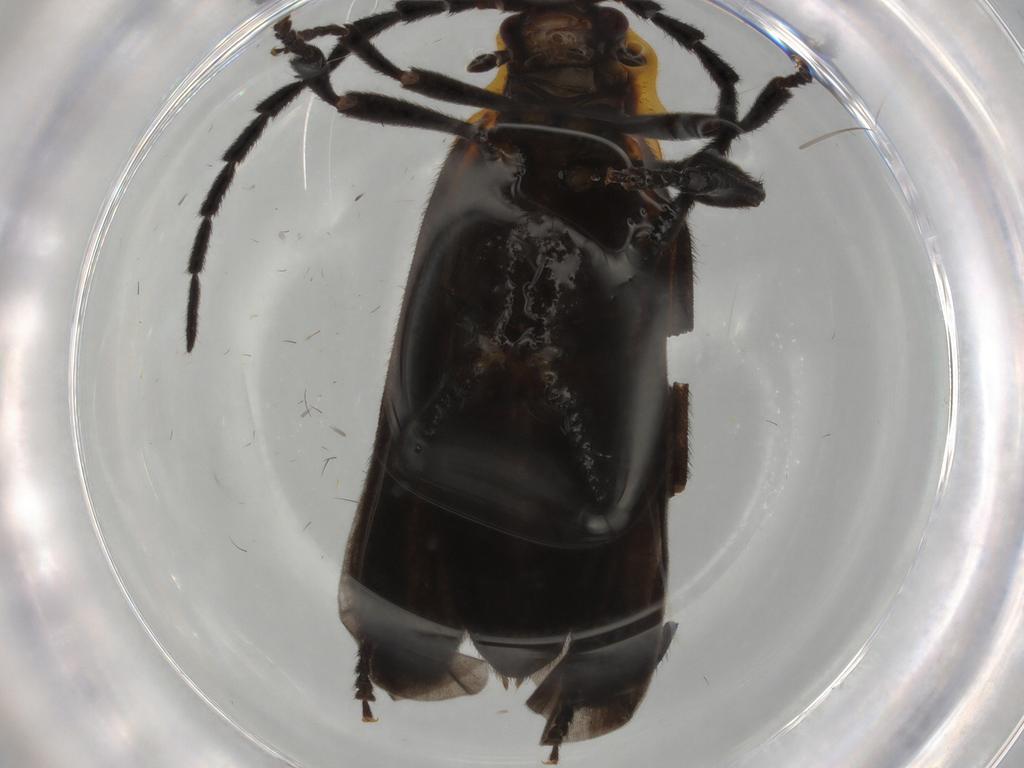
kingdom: Animalia
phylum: Arthropoda
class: Insecta
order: Coleoptera
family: Lycidae
